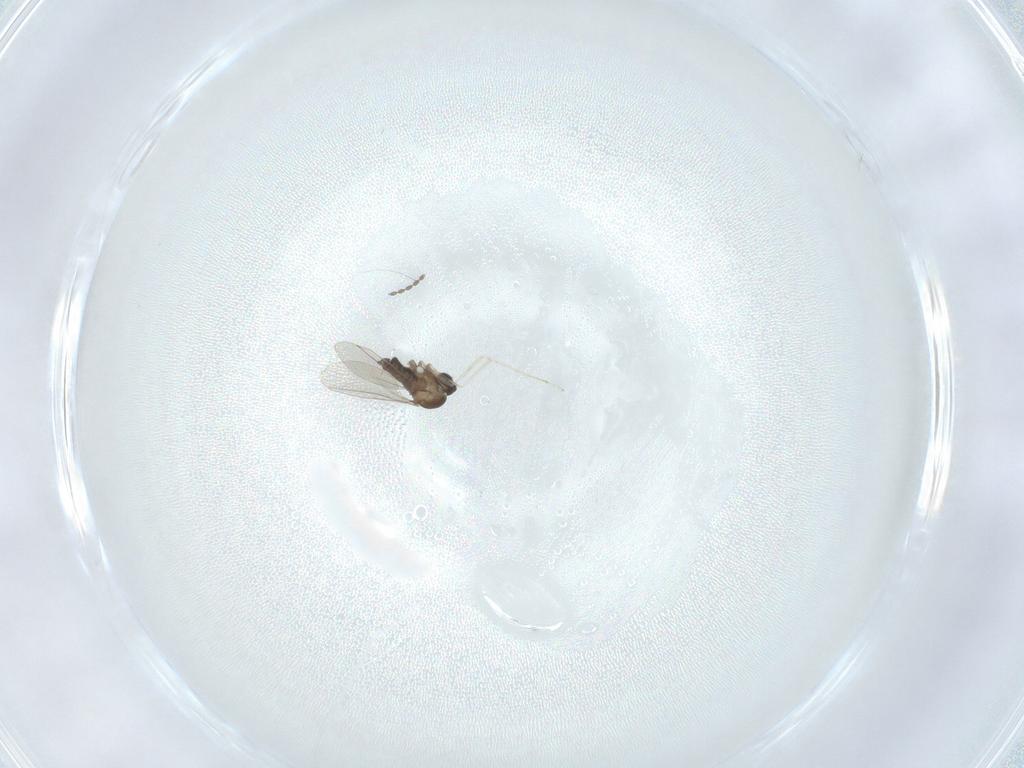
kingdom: Animalia
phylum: Arthropoda
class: Insecta
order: Diptera
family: Cecidomyiidae
